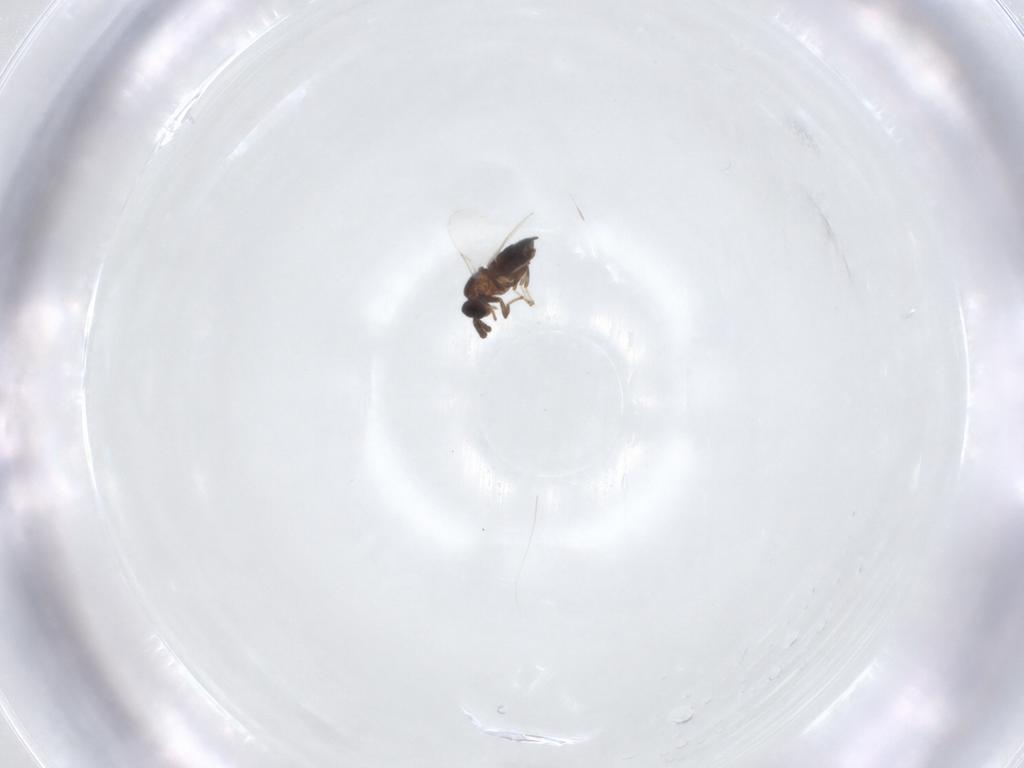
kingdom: Animalia
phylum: Arthropoda
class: Insecta
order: Diptera
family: Scatopsidae
